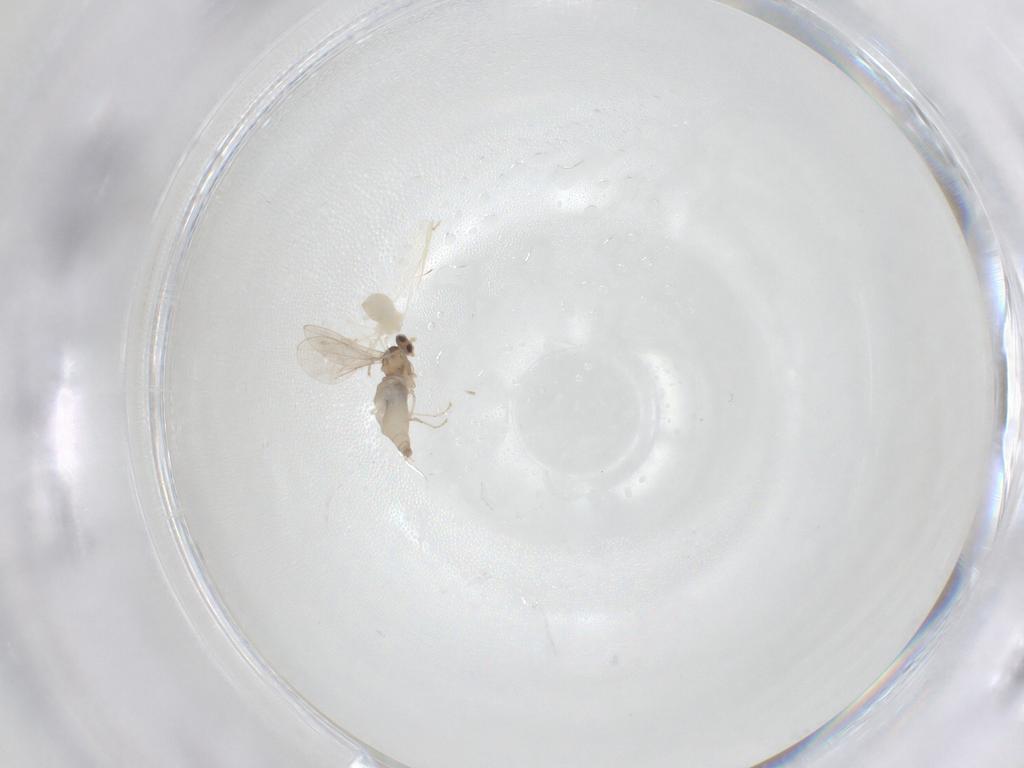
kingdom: Animalia
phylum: Arthropoda
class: Insecta
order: Diptera
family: Cecidomyiidae
